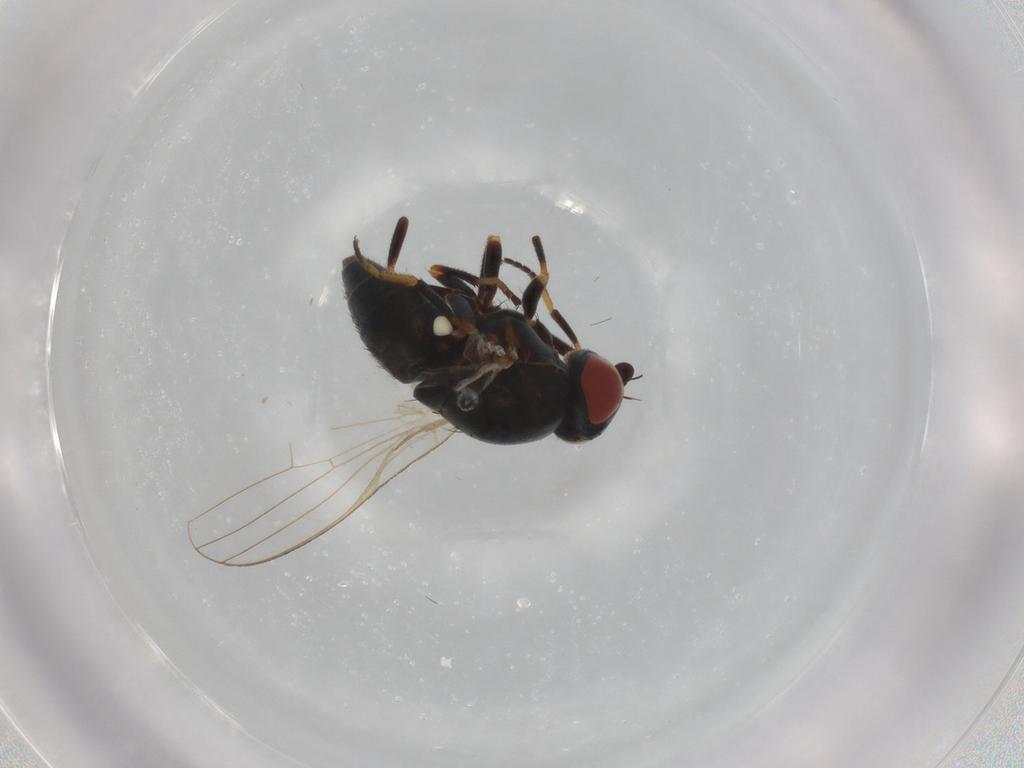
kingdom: Animalia
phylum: Arthropoda
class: Insecta
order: Diptera
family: Chamaemyiidae
